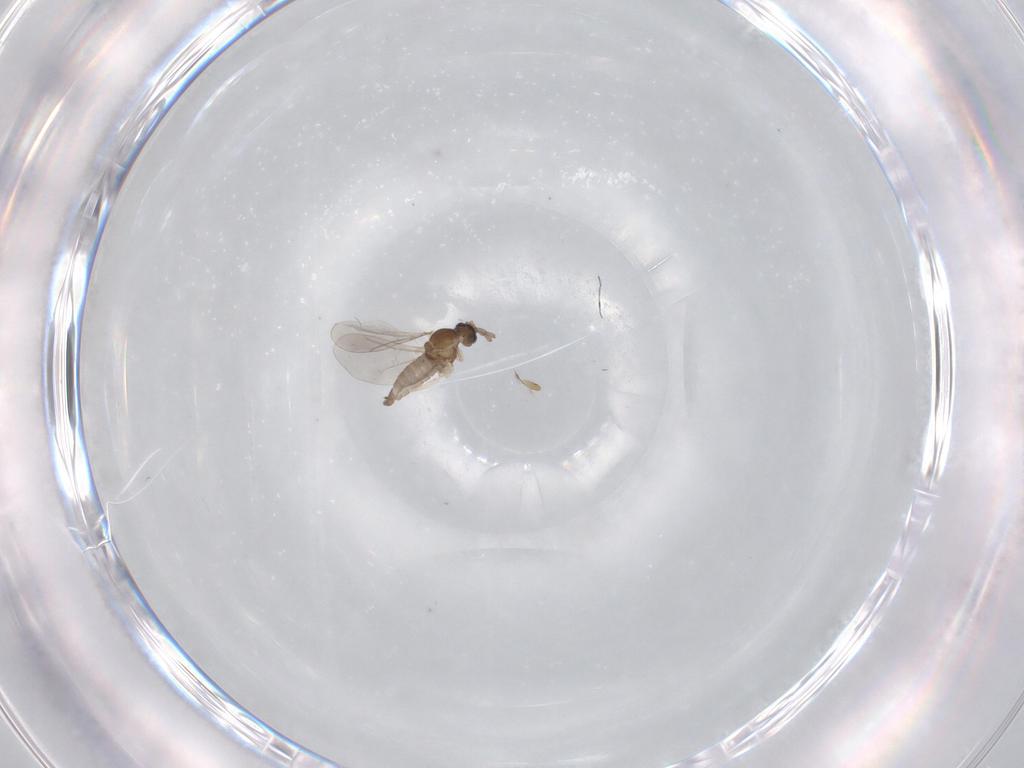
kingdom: Animalia
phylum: Arthropoda
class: Insecta
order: Diptera
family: Cecidomyiidae
